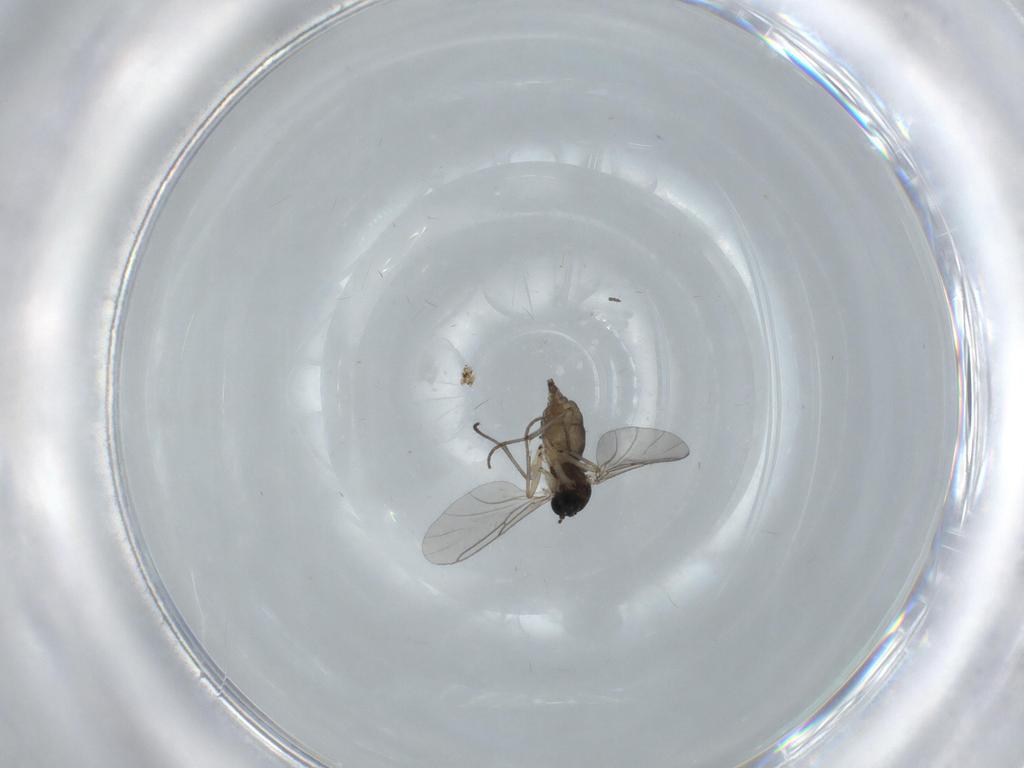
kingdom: Animalia
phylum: Arthropoda
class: Insecta
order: Diptera
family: Sciaridae
